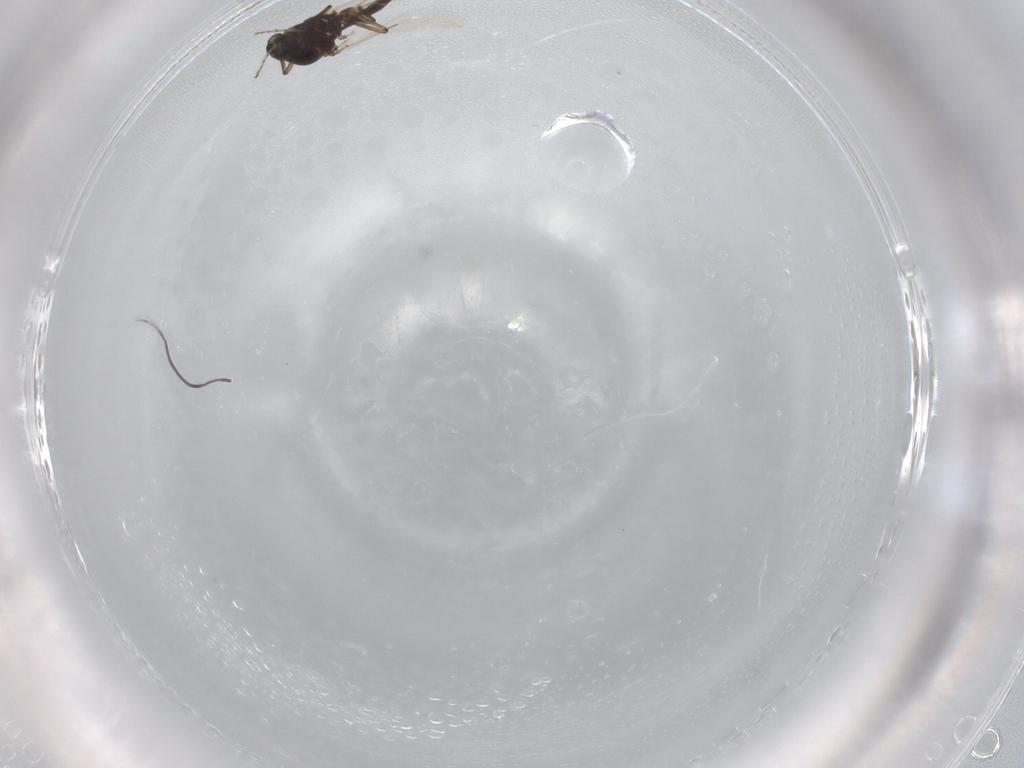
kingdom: Animalia
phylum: Arthropoda
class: Insecta
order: Diptera
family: Ceratopogonidae
